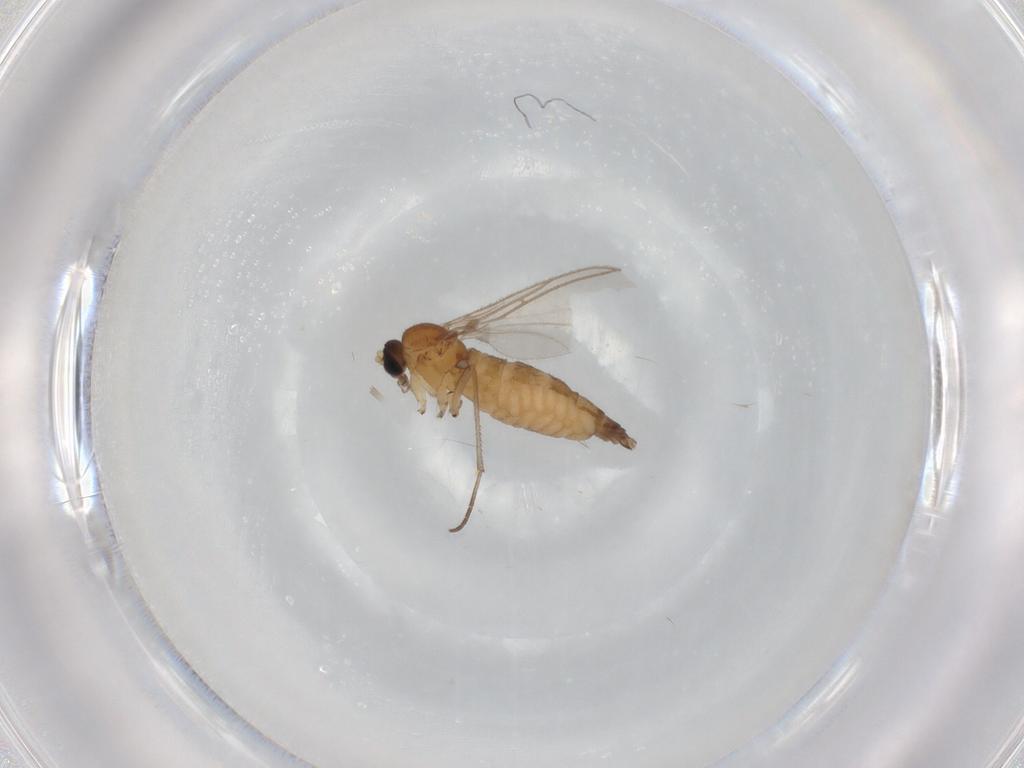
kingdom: Animalia
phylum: Arthropoda
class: Insecta
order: Diptera
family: Sciaridae
